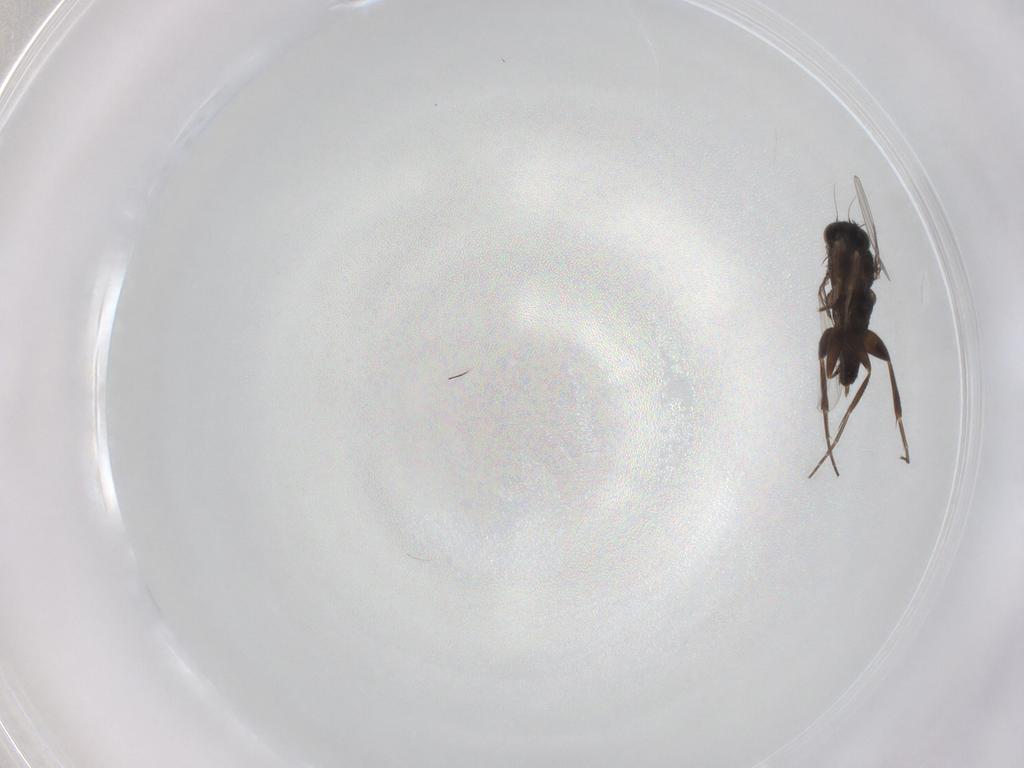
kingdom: Animalia
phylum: Arthropoda
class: Insecta
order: Diptera
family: Phoridae
